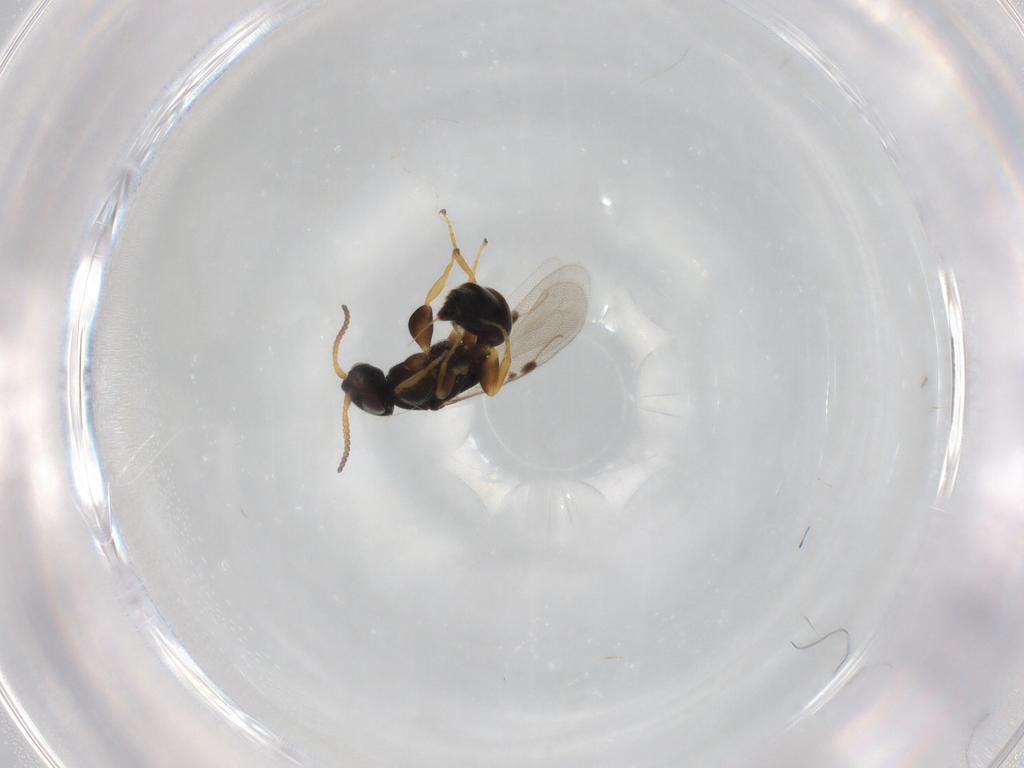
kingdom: Animalia
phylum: Arthropoda
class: Insecta
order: Hymenoptera
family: Bethylidae
